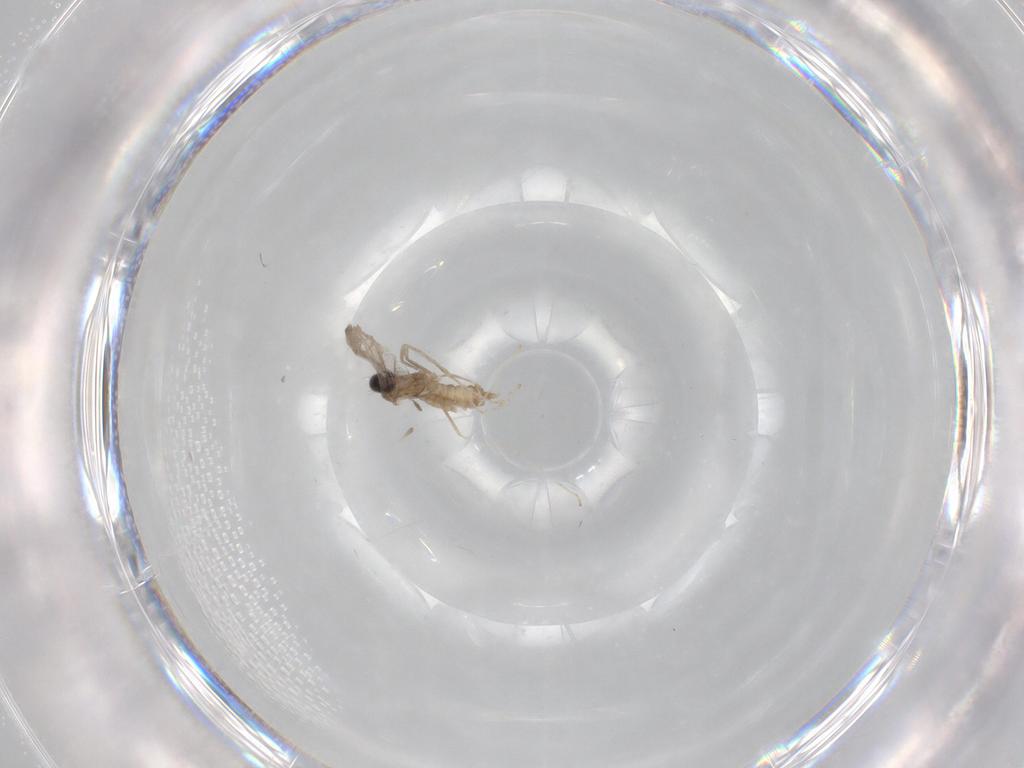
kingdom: Animalia
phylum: Arthropoda
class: Insecta
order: Diptera
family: Cecidomyiidae
